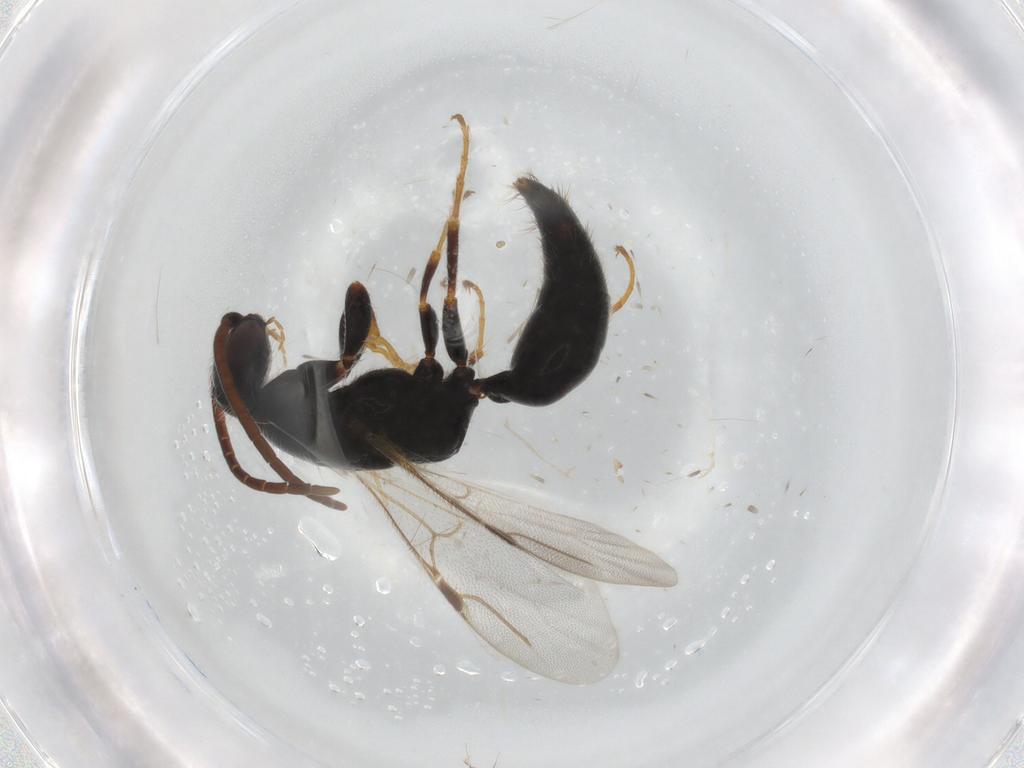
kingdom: Animalia
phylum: Arthropoda
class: Insecta
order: Hymenoptera
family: Bethylidae
